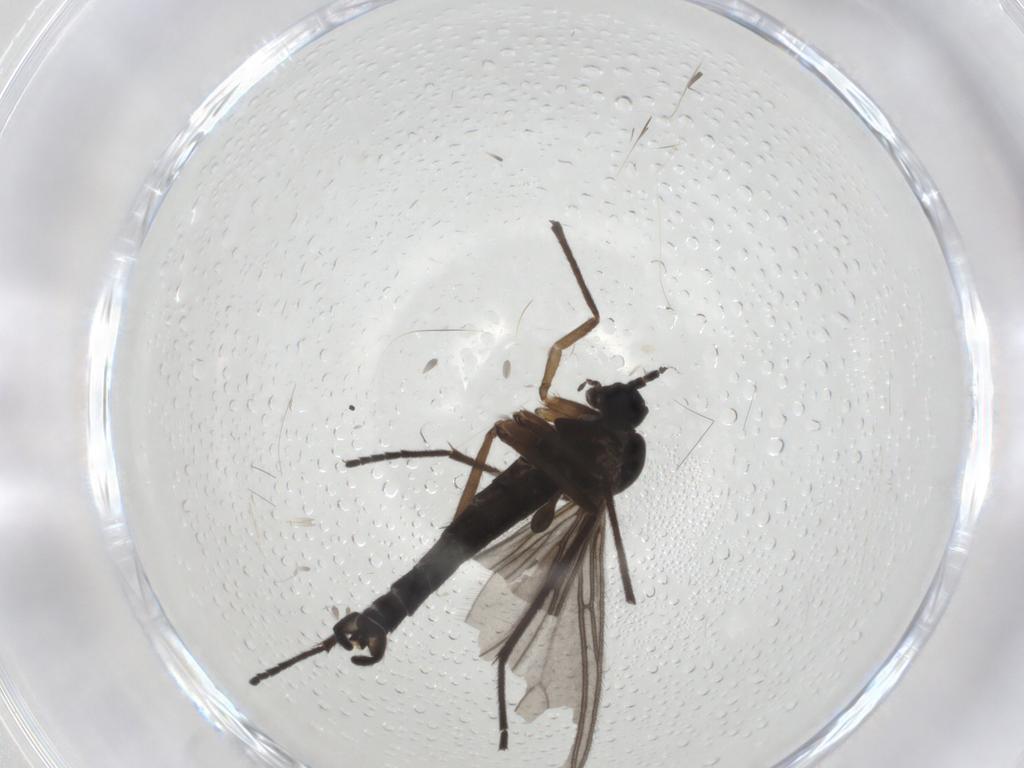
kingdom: Animalia
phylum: Arthropoda
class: Insecta
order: Diptera
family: Sciaridae
